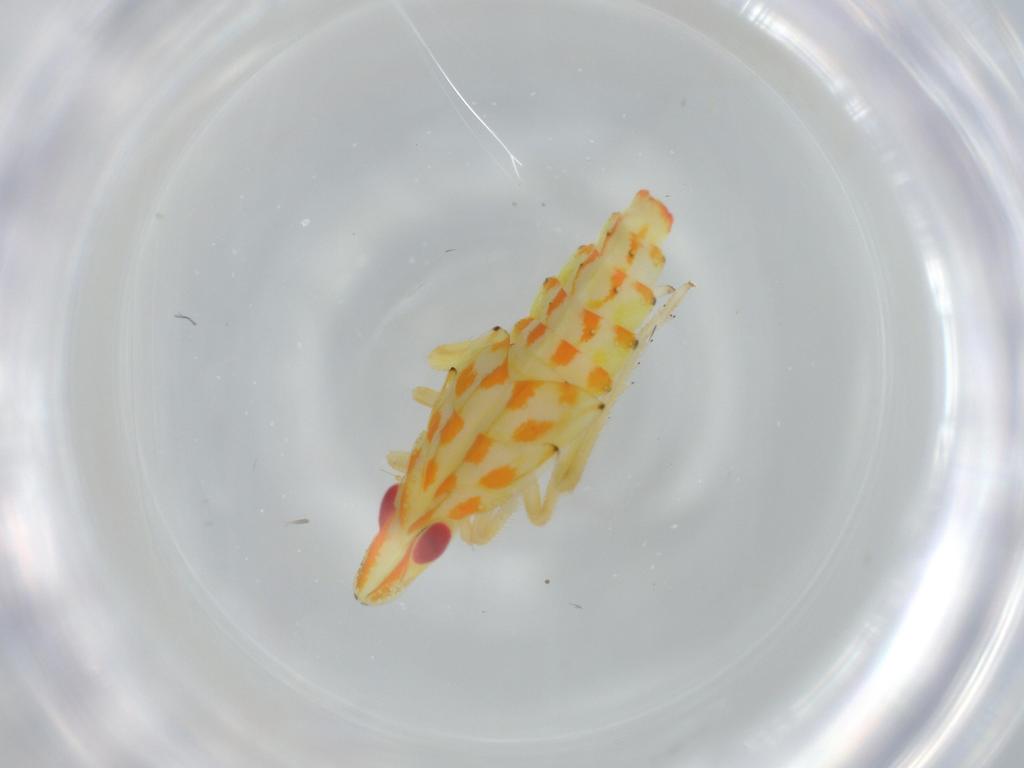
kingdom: Animalia
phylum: Arthropoda
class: Insecta
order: Hemiptera
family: Tropiduchidae
